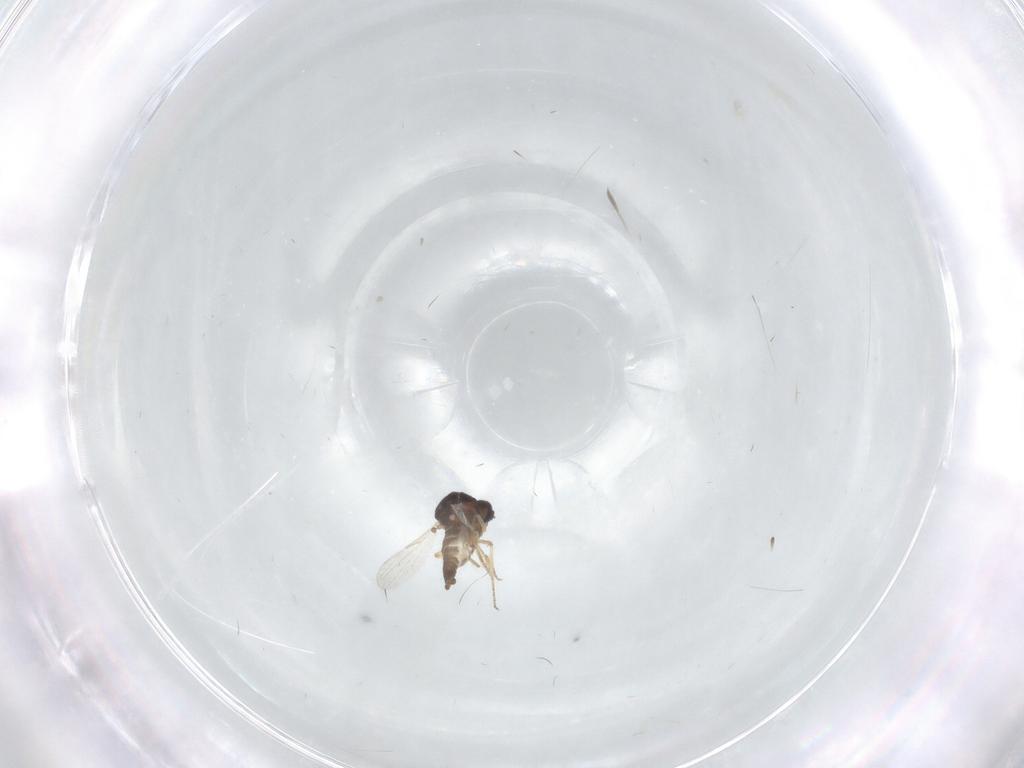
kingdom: Animalia
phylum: Arthropoda
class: Insecta
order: Diptera
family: Ceratopogonidae
